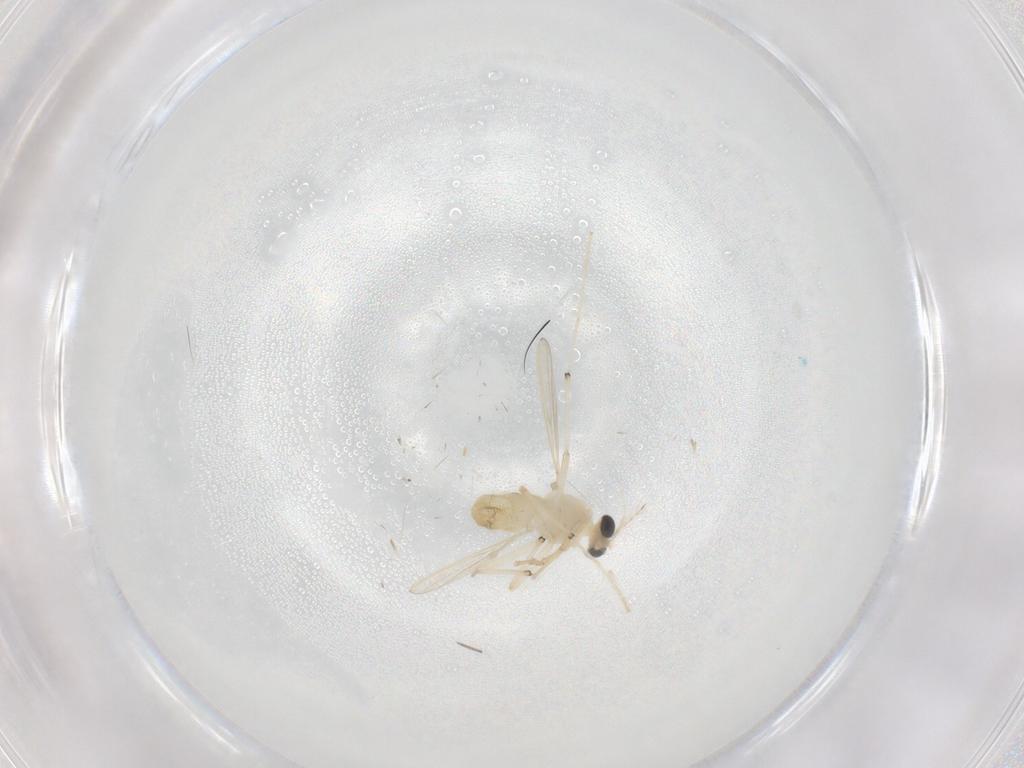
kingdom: Animalia
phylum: Arthropoda
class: Insecta
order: Diptera
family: Chironomidae
